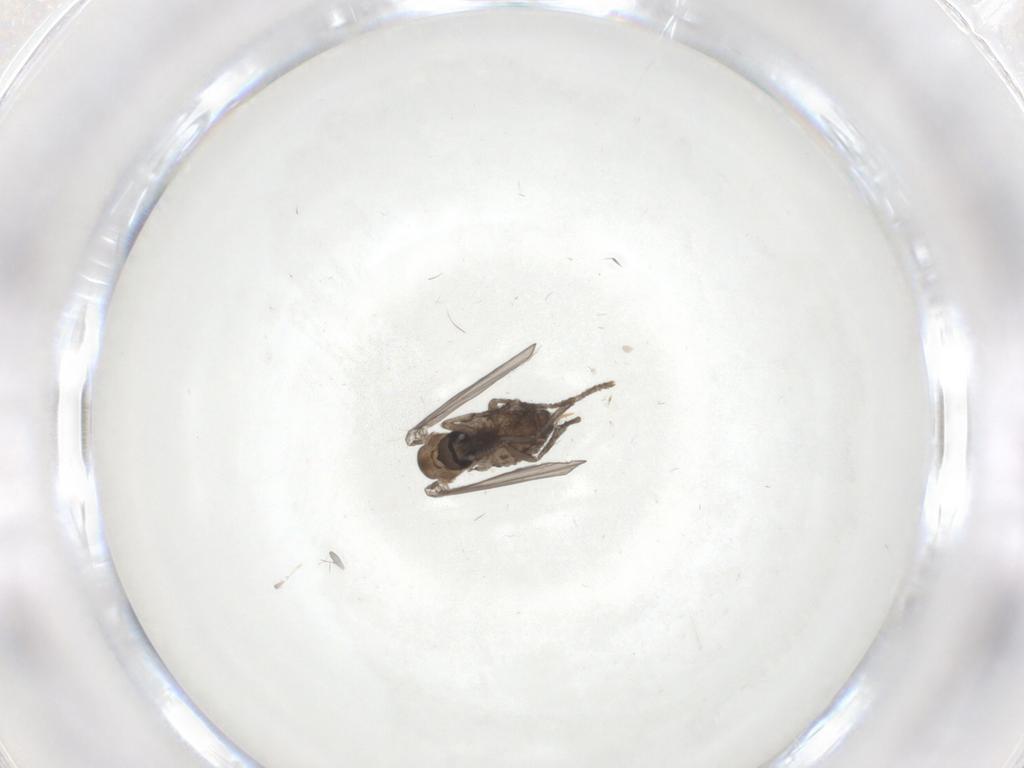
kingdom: Animalia
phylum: Arthropoda
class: Insecta
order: Diptera
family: Psychodidae
